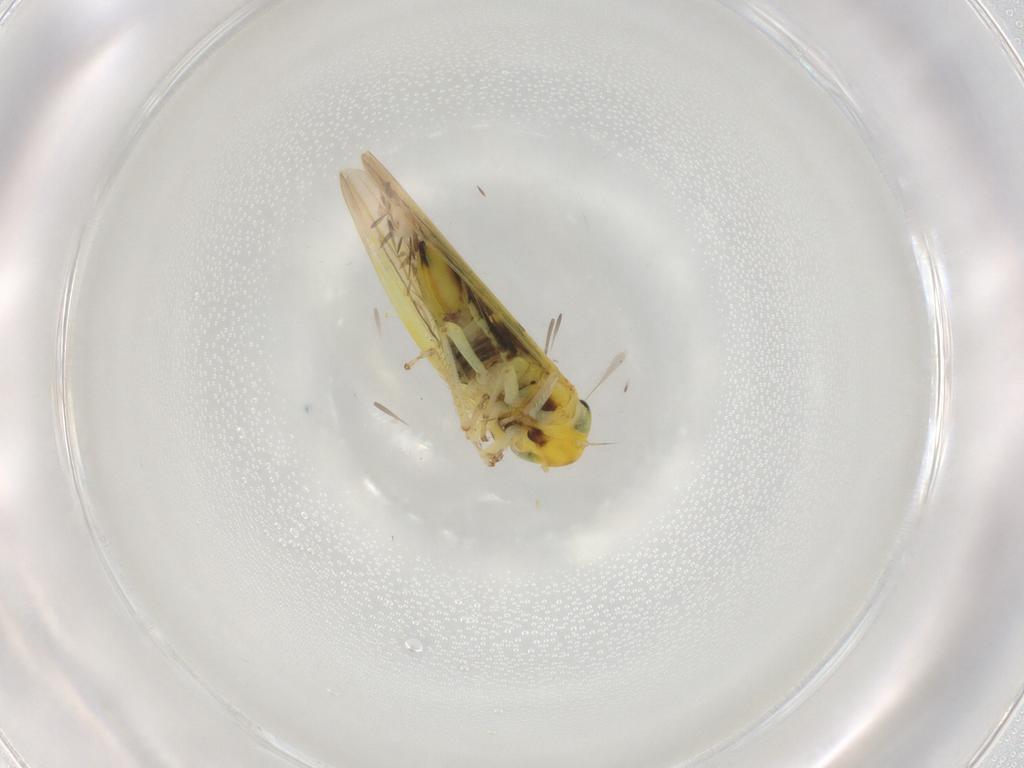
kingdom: Animalia
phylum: Arthropoda
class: Insecta
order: Hemiptera
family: Cicadellidae
